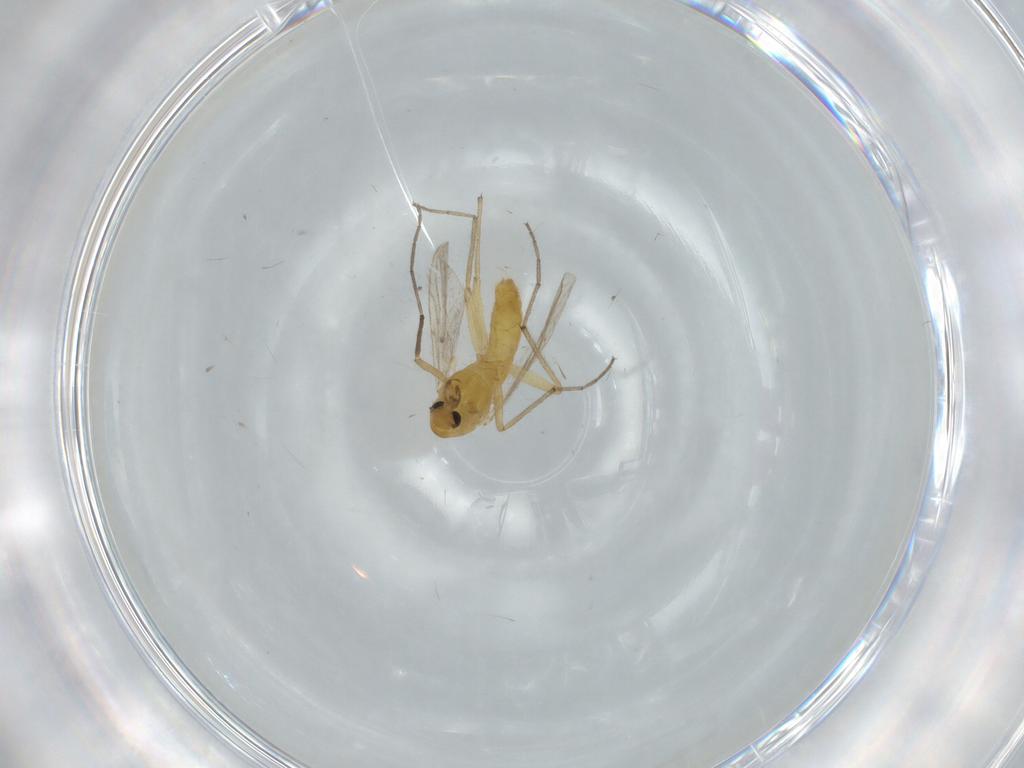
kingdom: Animalia
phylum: Arthropoda
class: Insecta
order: Diptera
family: Chironomidae
